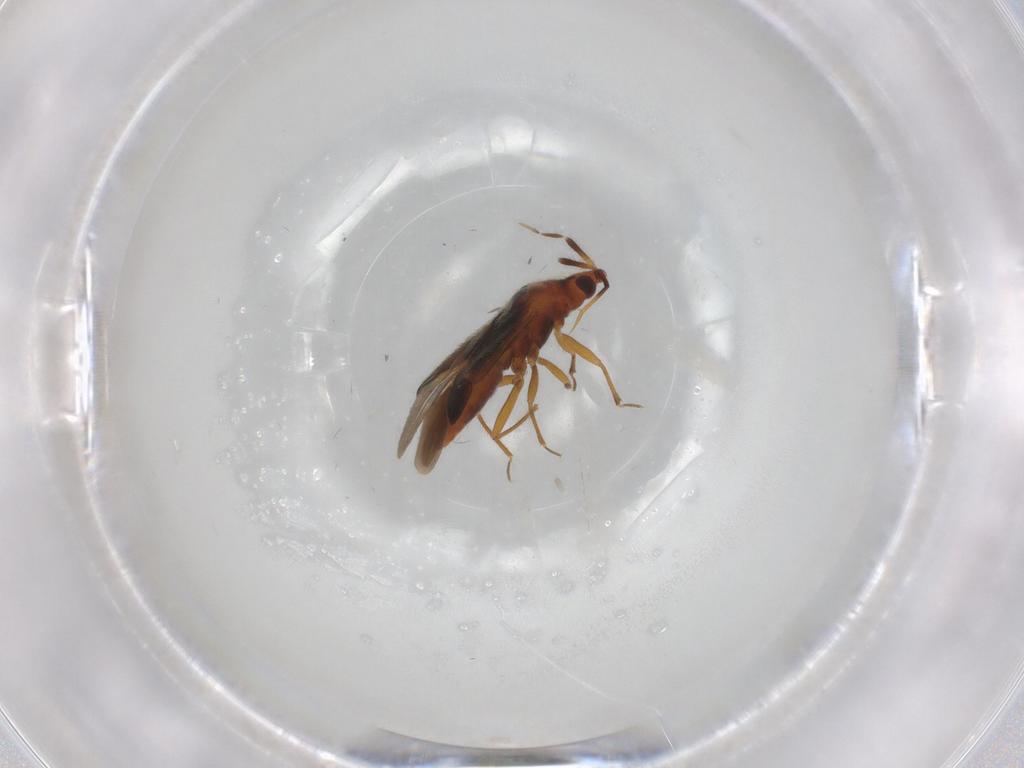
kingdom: Animalia
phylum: Arthropoda
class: Insecta
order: Hemiptera
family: Anthocoridae
